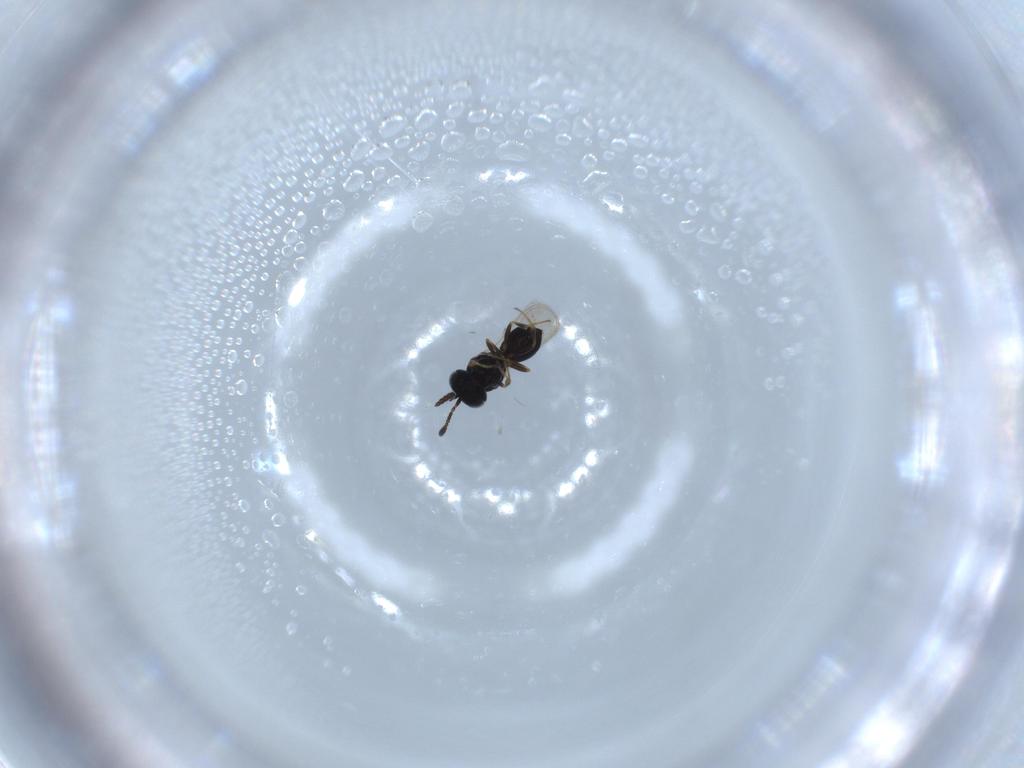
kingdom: Animalia
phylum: Arthropoda
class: Insecta
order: Hymenoptera
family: Scelionidae
